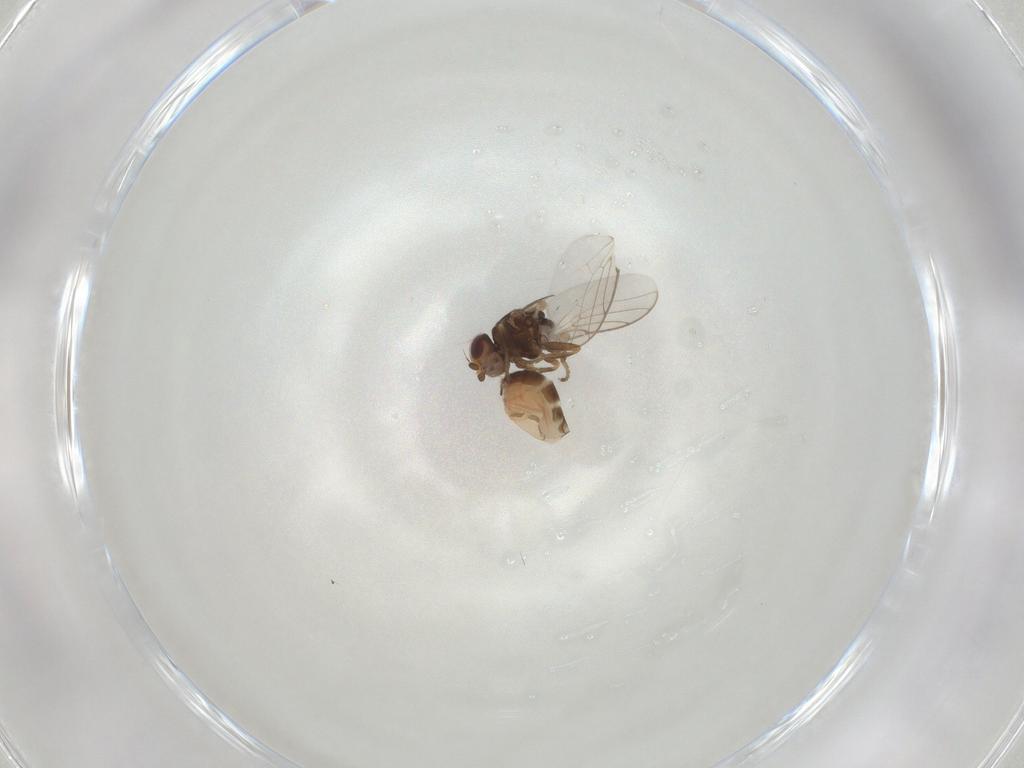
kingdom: Animalia
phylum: Arthropoda
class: Insecta
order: Diptera
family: Chloropidae
